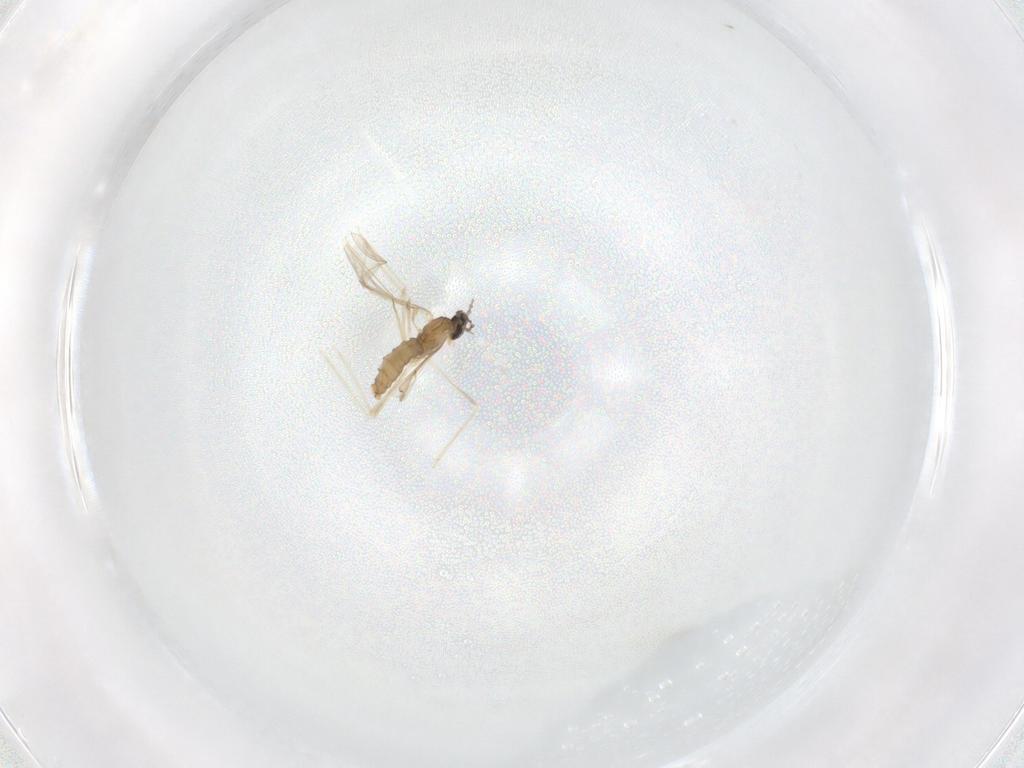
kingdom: Animalia
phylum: Arthropoda
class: Insecta
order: Diptera
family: Cecidomyiidae
